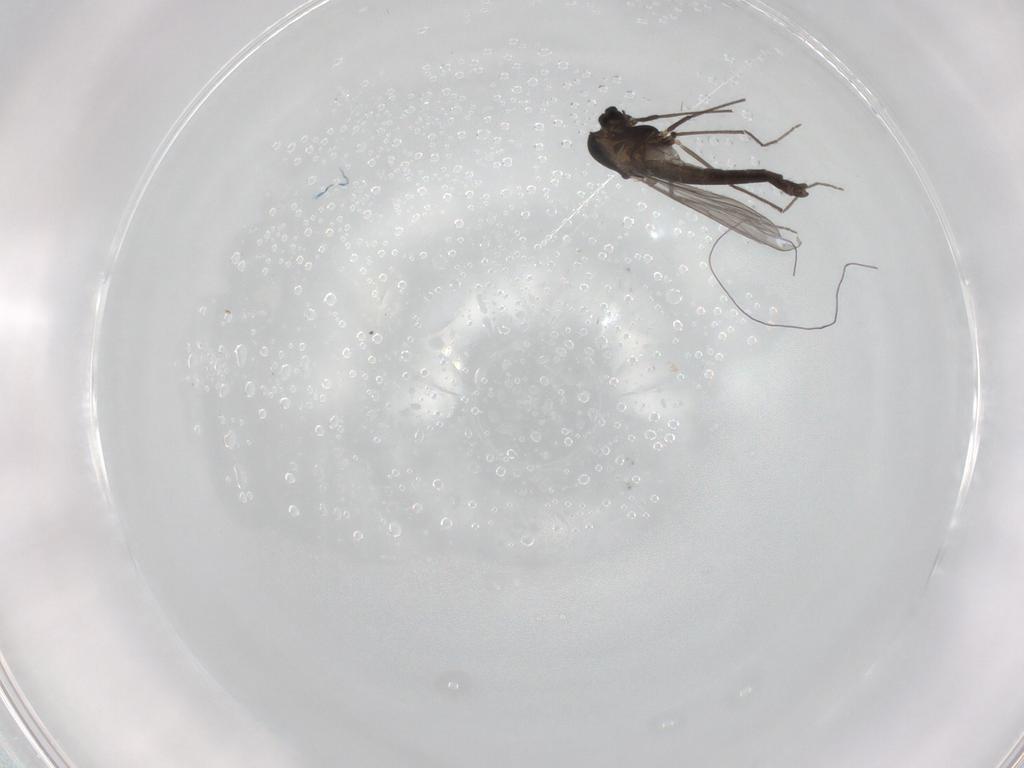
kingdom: Animalia
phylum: Arthropoda
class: Insecta
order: Diptera
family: Chironomidae
